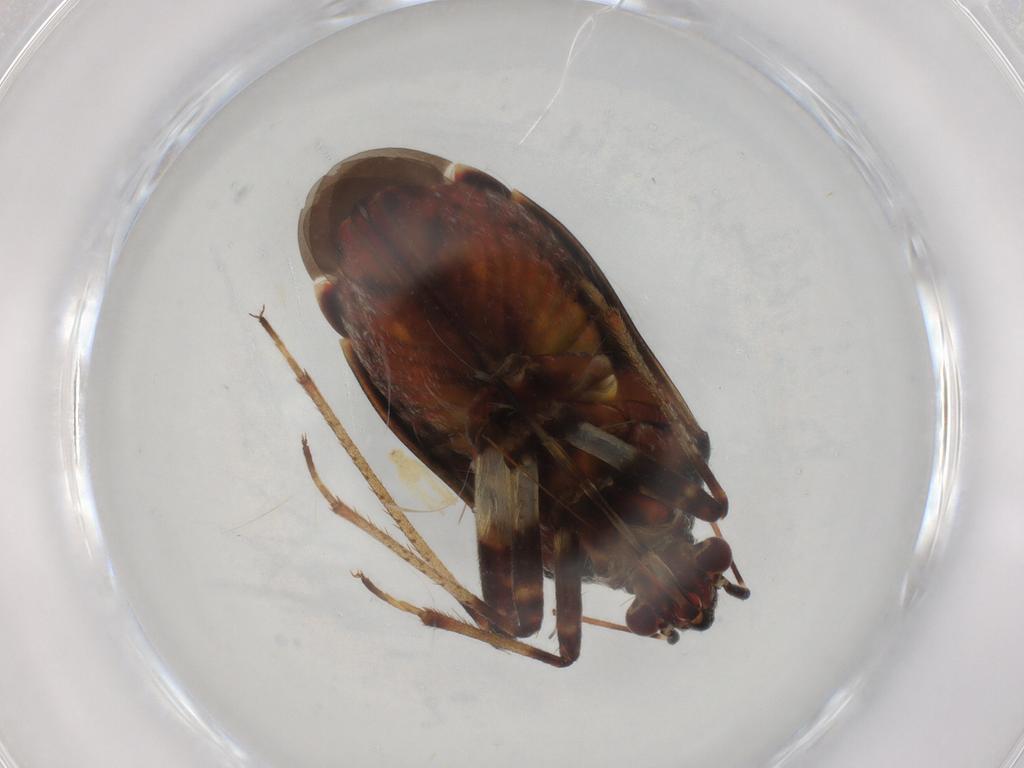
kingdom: Animalia
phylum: Arthropoda
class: Insecta
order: Hemiptera
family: Miridae
